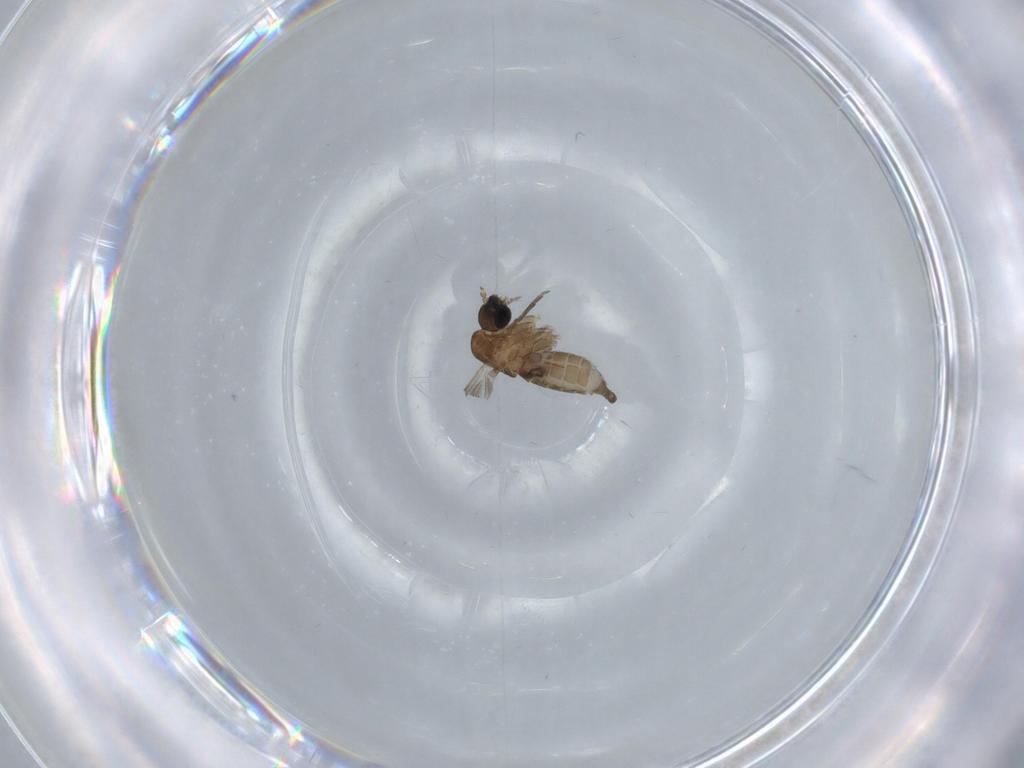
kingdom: Animalia
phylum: Arthropoda
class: Insecta
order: Diptera
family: Psychodidae
